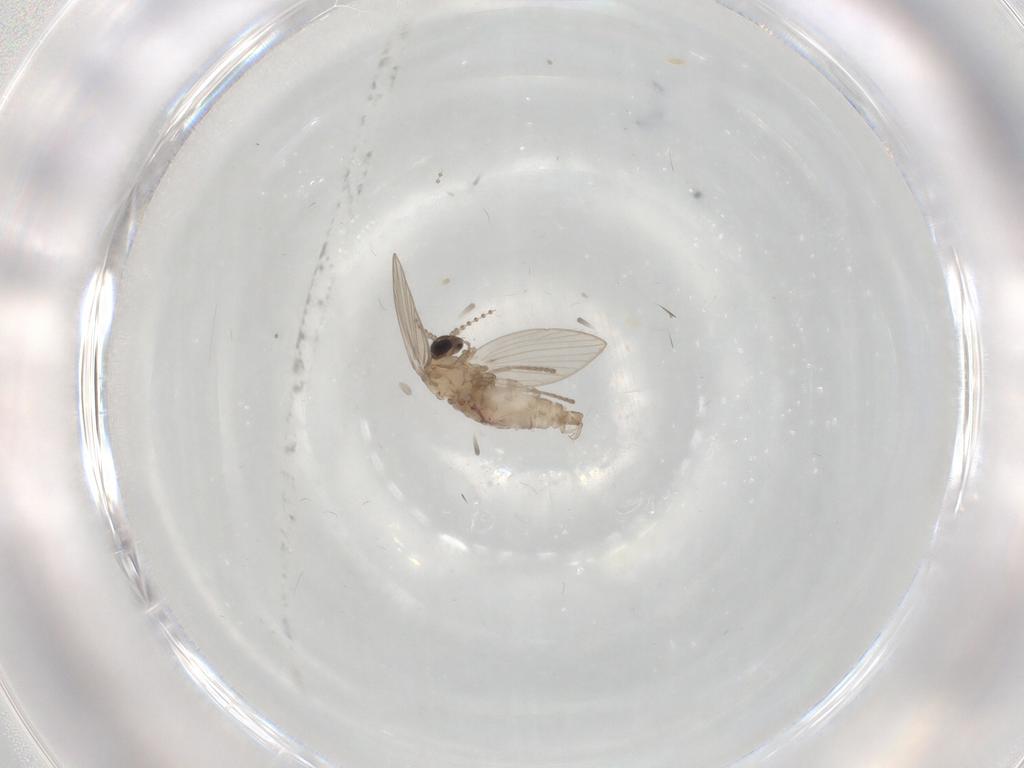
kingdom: Animalia
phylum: Arthropoda
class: Insecta
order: Diptera
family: Psychodidae
